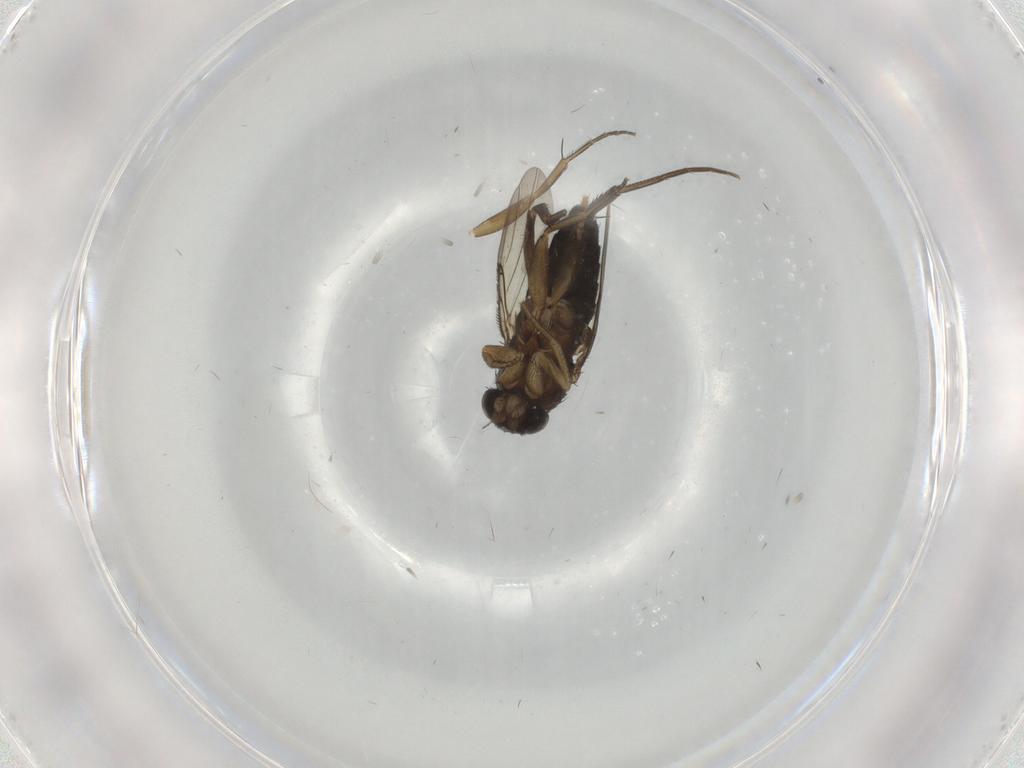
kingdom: Animalia
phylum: Arthropoda
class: Insecta
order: Diptera
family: Phoridae
